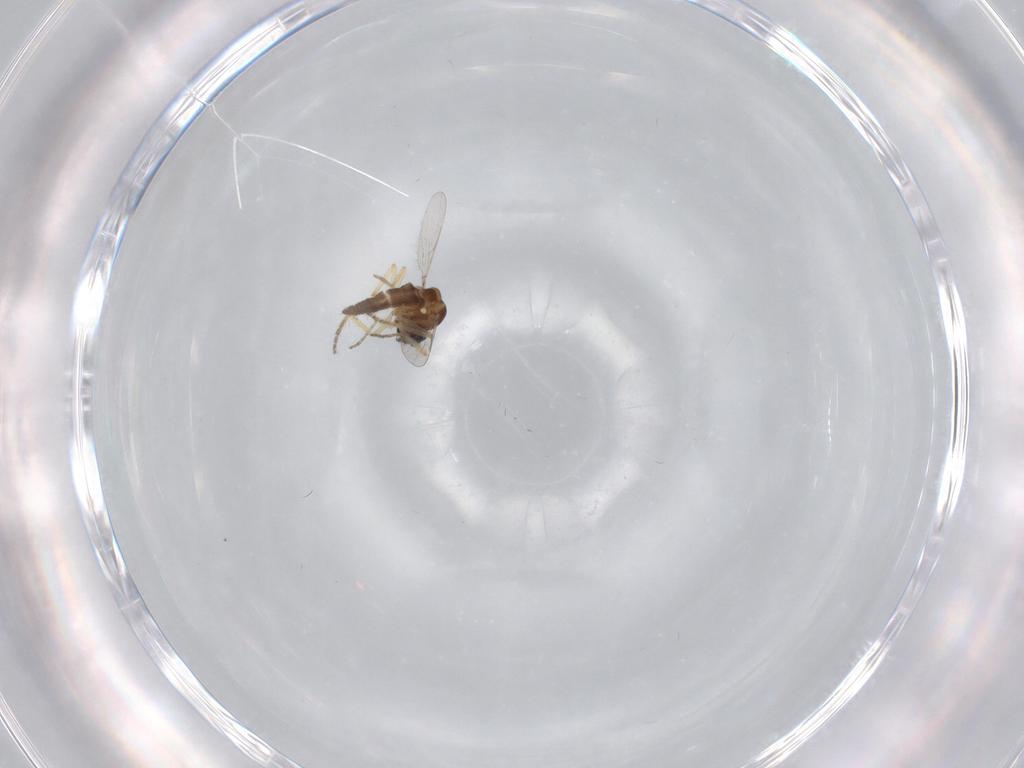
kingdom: Animalia
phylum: Arthropoda
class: Insecta
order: Diptera
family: Ceratopogonidae
